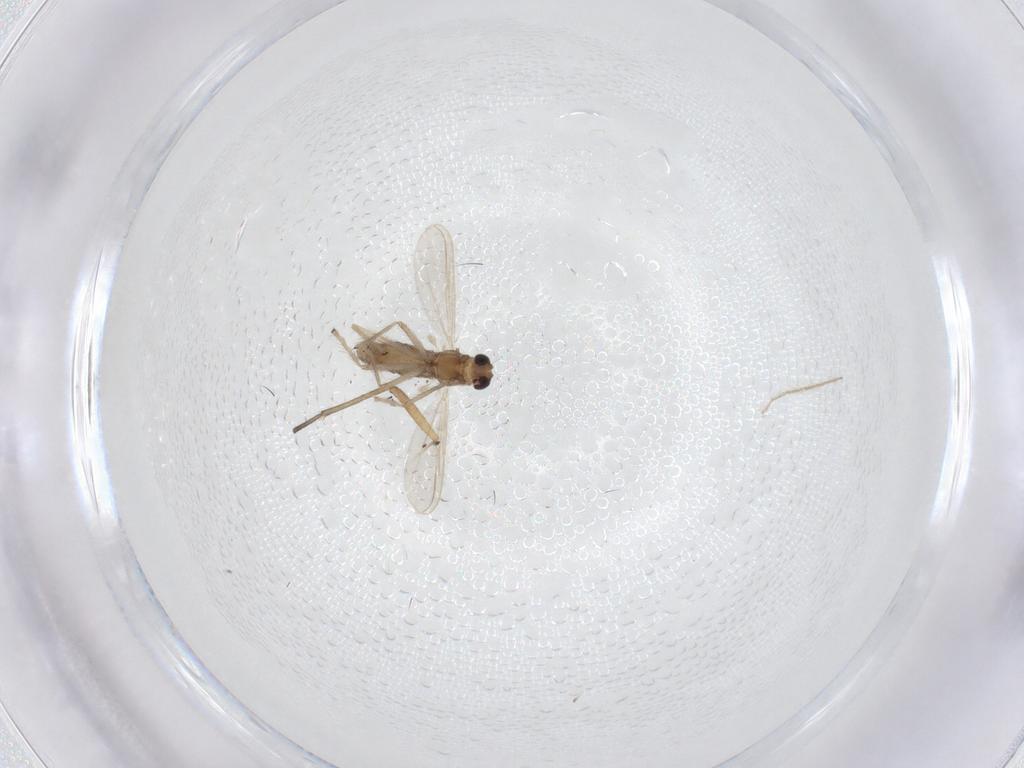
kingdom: Animalia
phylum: Arthropoda
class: Insecta
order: Diptera
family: Chironomidae
